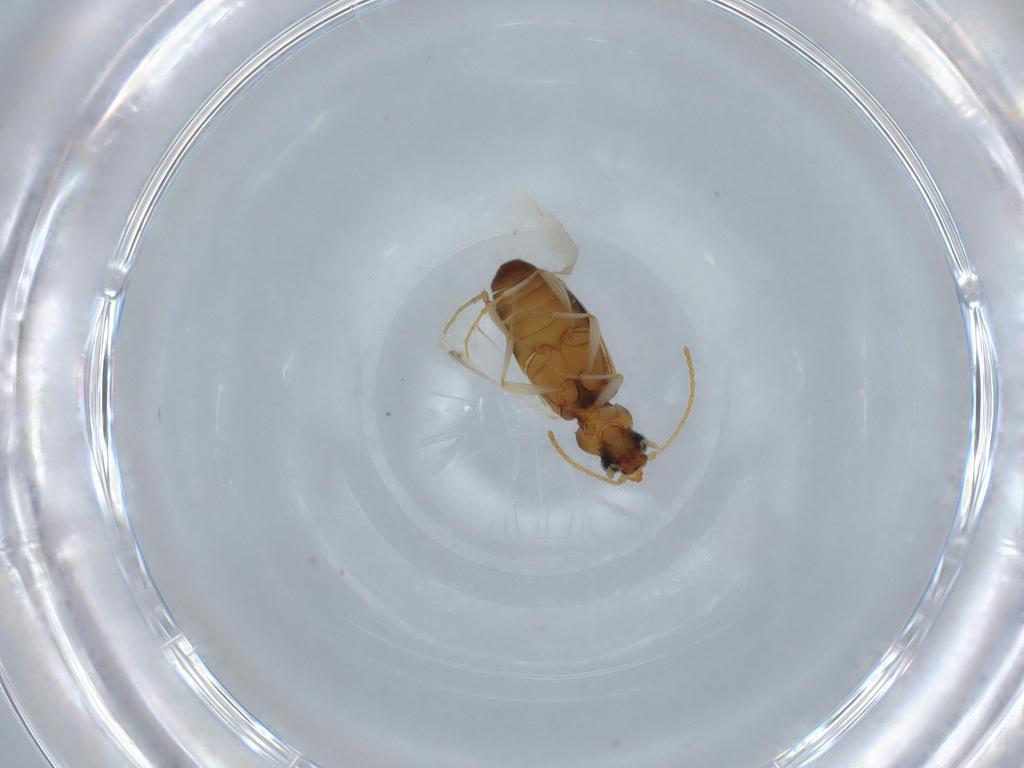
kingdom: Animalia
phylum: Arthropoda
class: Insecta
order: Coleoptera
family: Anthicidae
